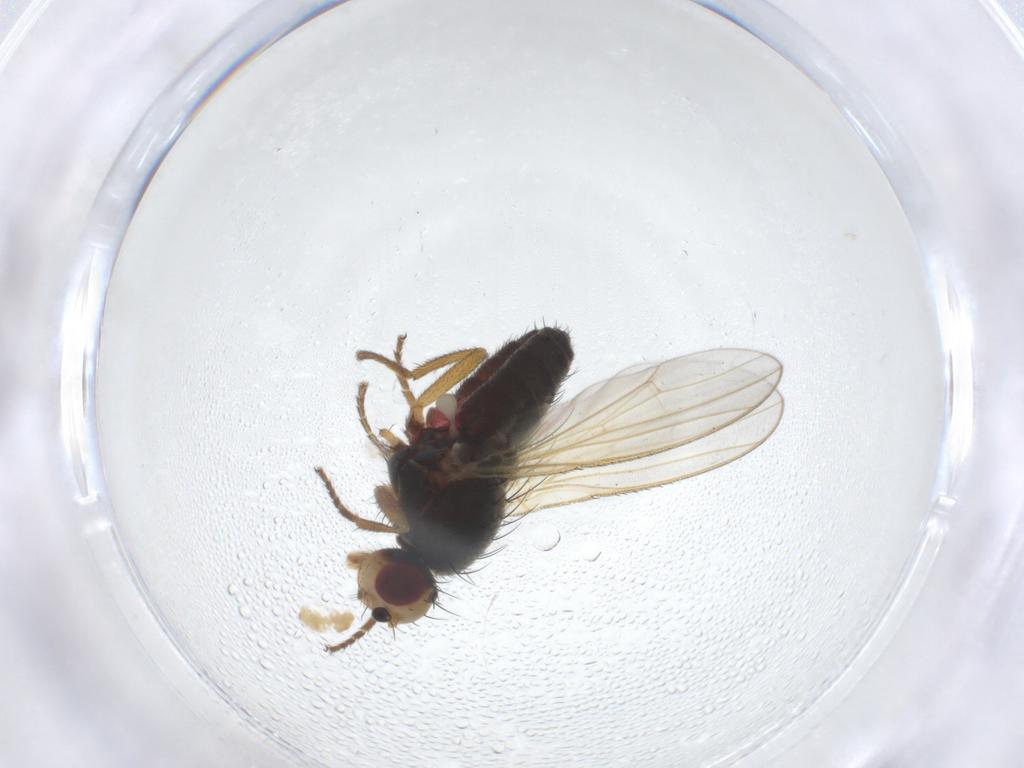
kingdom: Animalia
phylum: Arthropoda
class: Insecta
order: Diptera
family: Heleomyzidae
